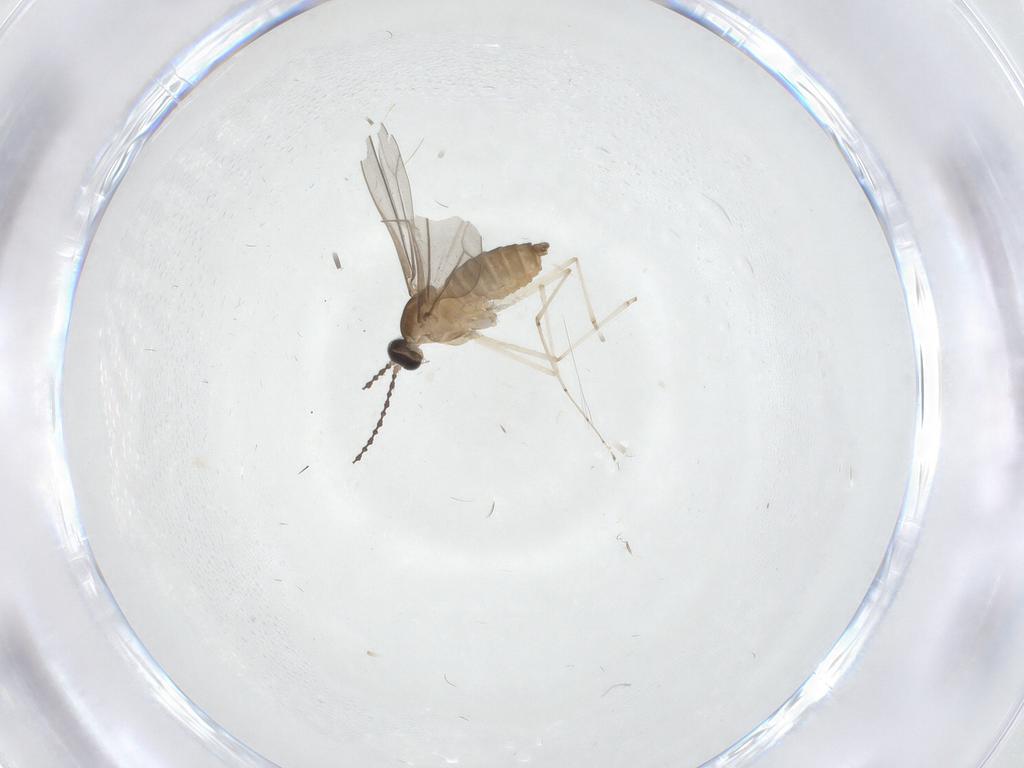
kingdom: Animalia
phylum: Arthropoda
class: Insecta
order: Diptera
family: Cecidomyiidae
